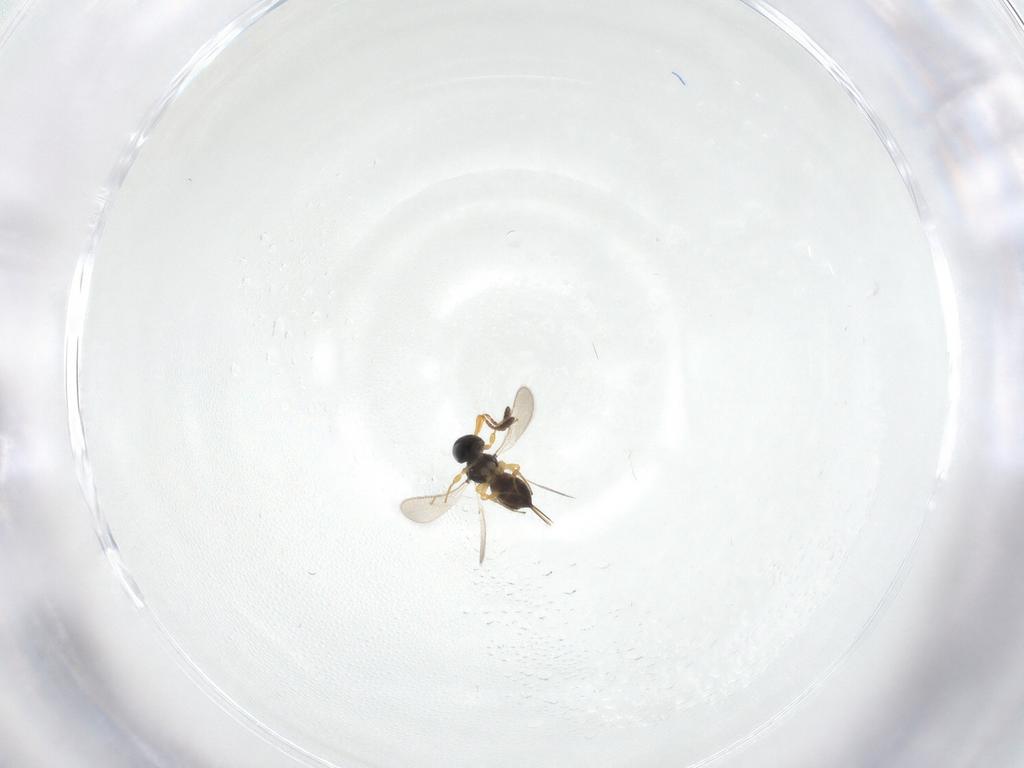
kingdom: Animalia
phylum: Arthropoda
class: Insecta
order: Hymenoptera
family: Scelionidae
